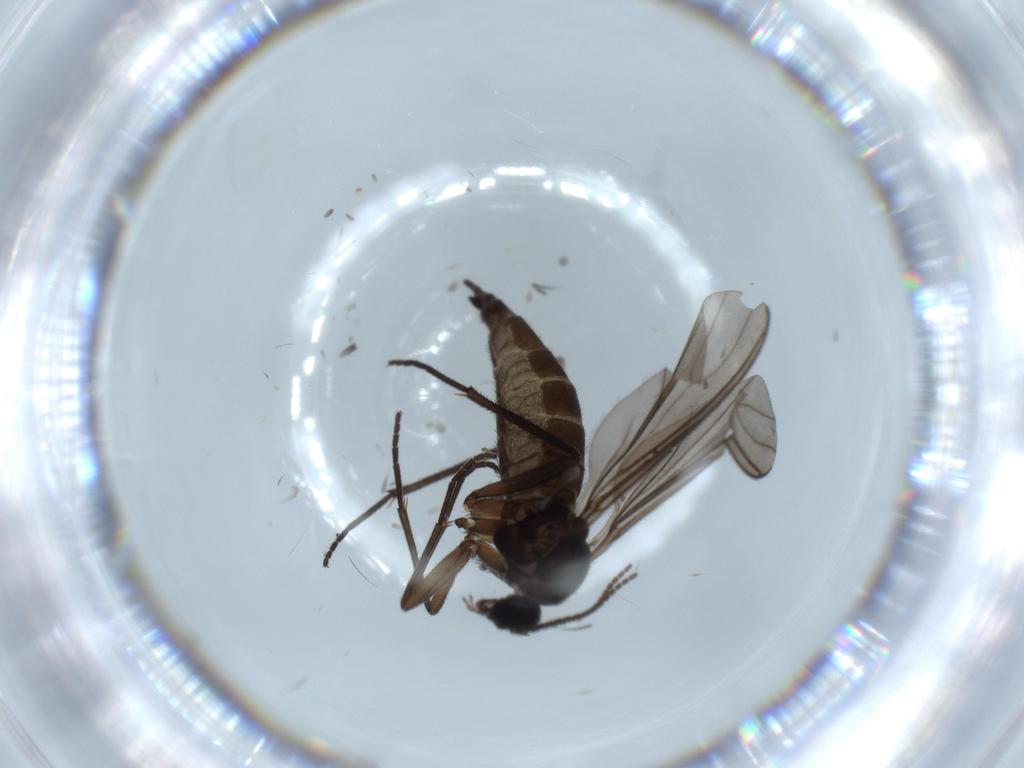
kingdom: Animalia
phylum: Arthropoda
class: Insecta
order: Diptera
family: Sciaridae
